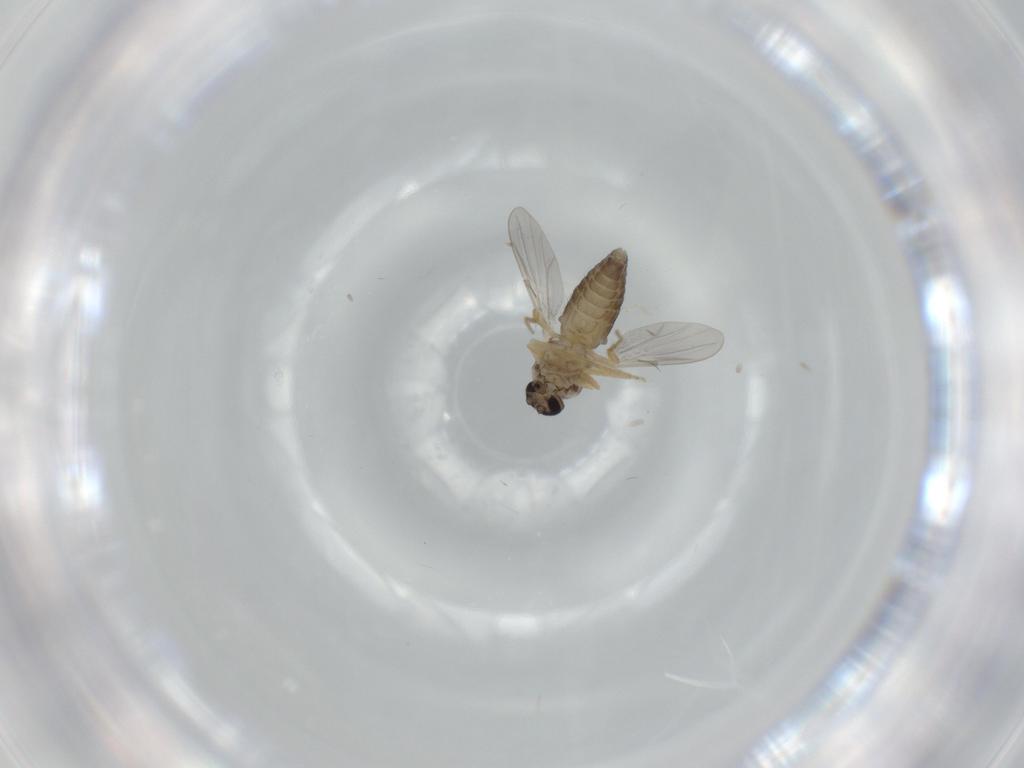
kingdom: Animalia
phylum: Arthropoda
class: Insecta
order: Diptera
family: Ceratopogonidae
